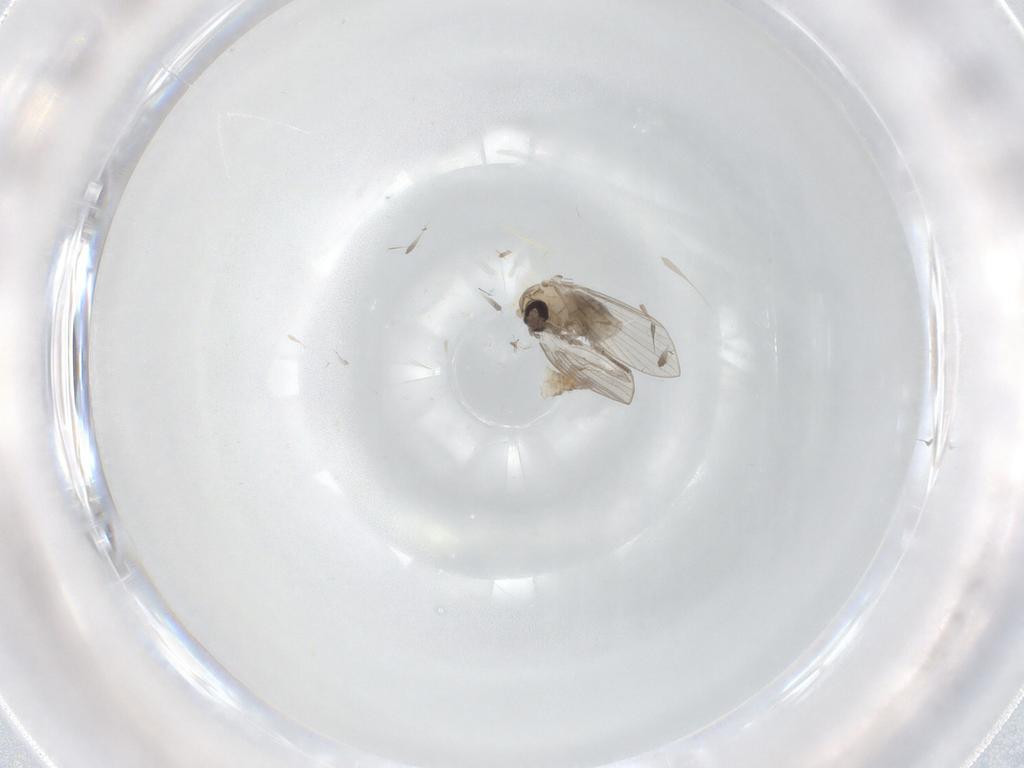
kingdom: Animalia
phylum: Arthropoda
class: Insecta
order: Diptera
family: Psychodidae
